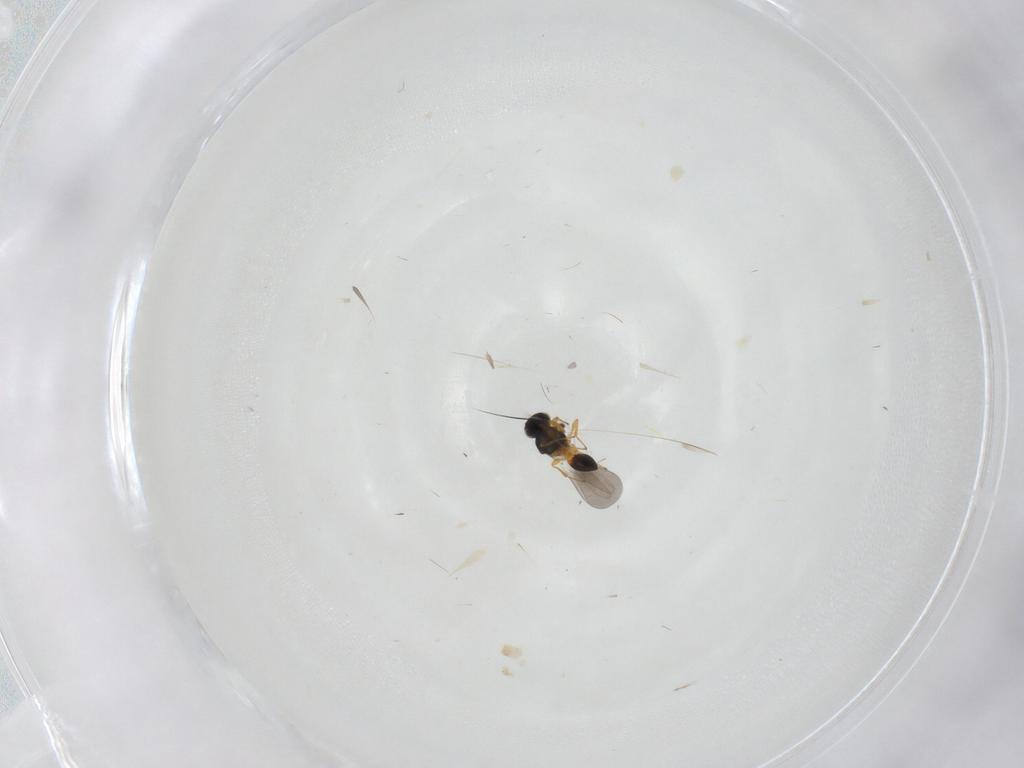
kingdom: Animalia
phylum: Arthropoda
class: Insecta
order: Hymenoptera
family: Platygastridae
